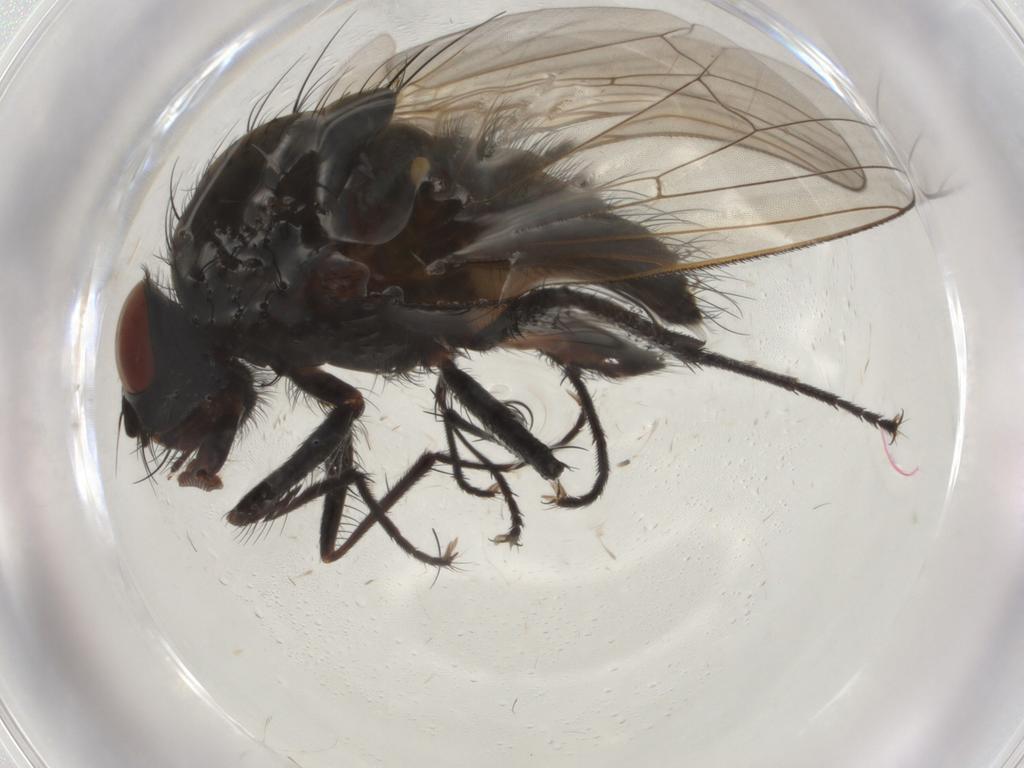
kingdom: Animalia
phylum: Arthropoda
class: Insecta
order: Diptera
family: Anthomyiidae
